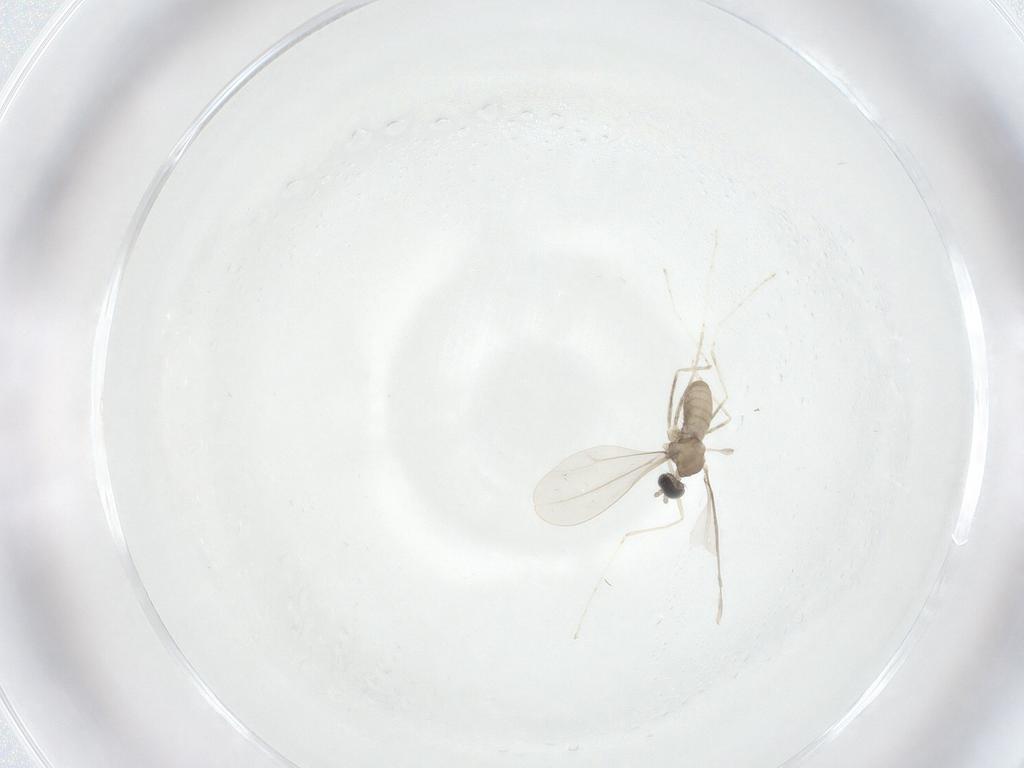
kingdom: Animalia
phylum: Arthropoda
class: Insecta
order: Diptera
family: Cecidomyiidae
